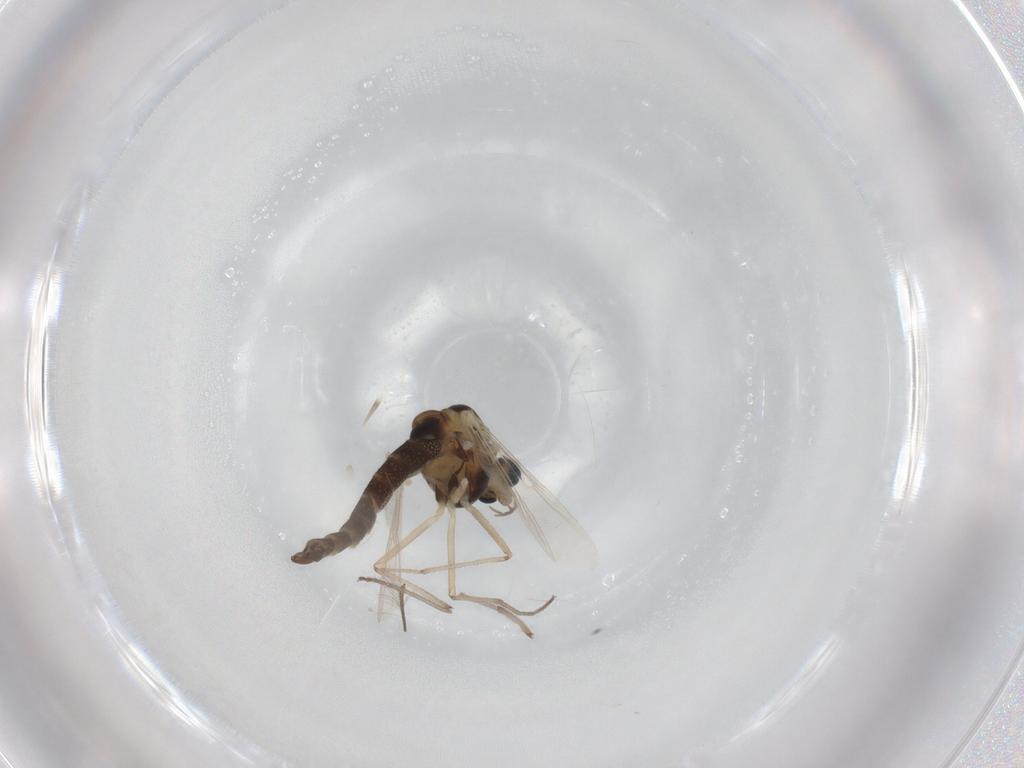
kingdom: Animalia
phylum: Arthropoda
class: Insecta
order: Diptera
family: Chironomidae
